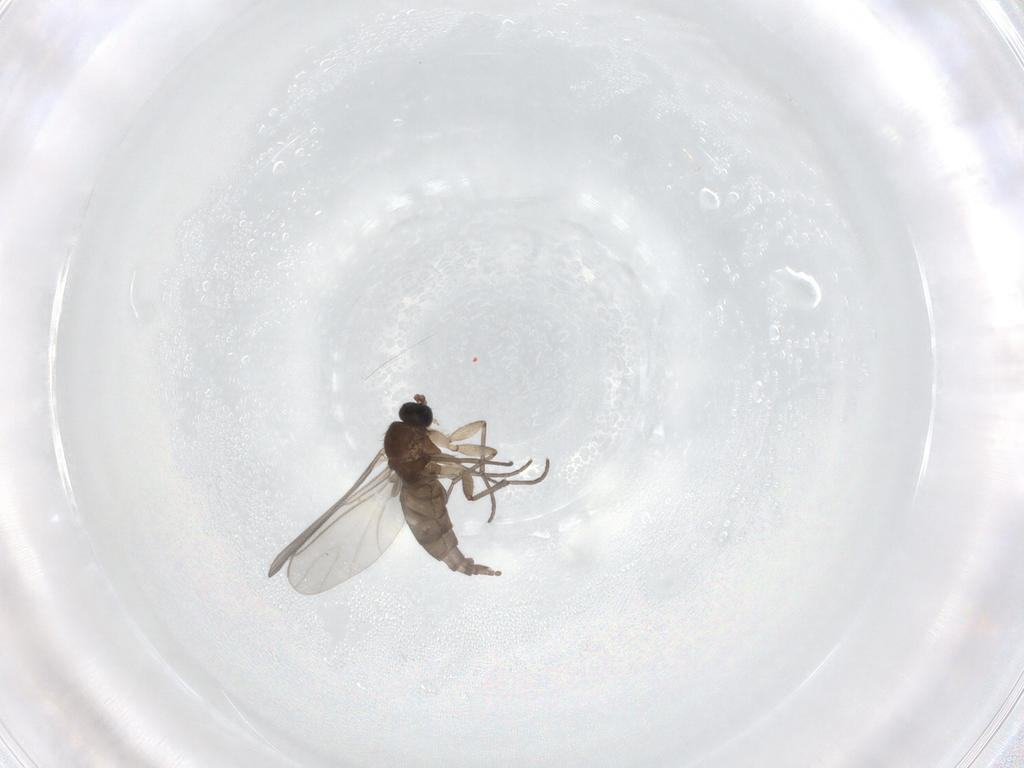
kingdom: Animalia
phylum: Arthropoda
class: Insecta
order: Diptera
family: Sciaridae
